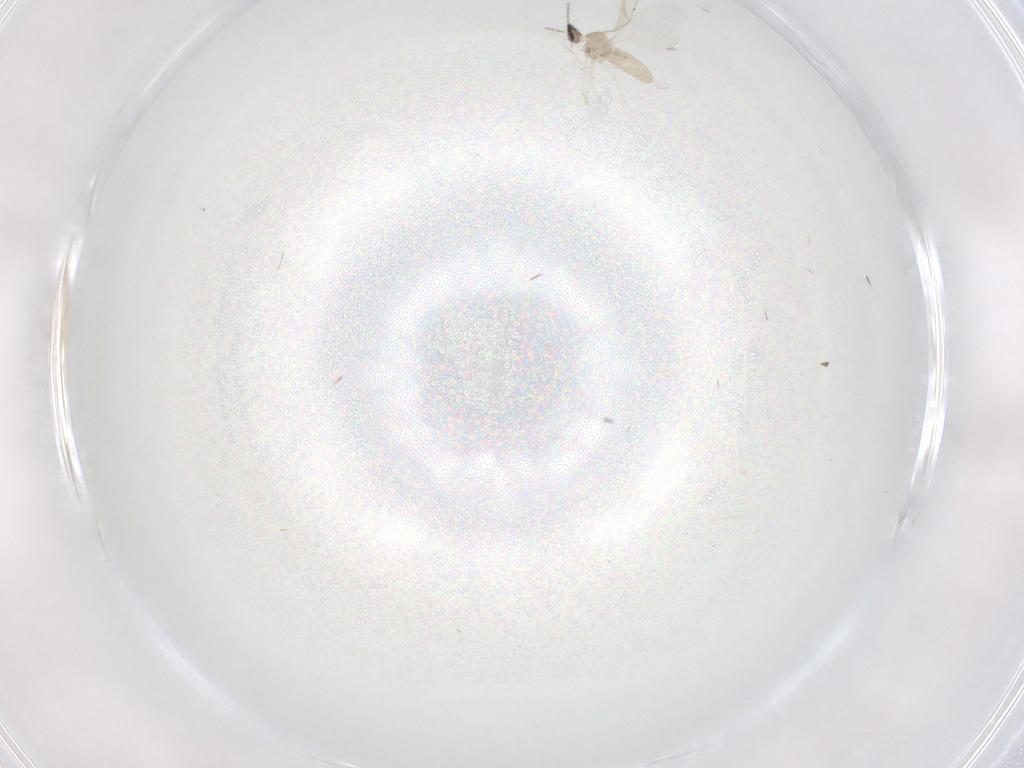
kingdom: Animalia
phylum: Arthropoda
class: Insecta
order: Diptera
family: Cecidomyiidae
